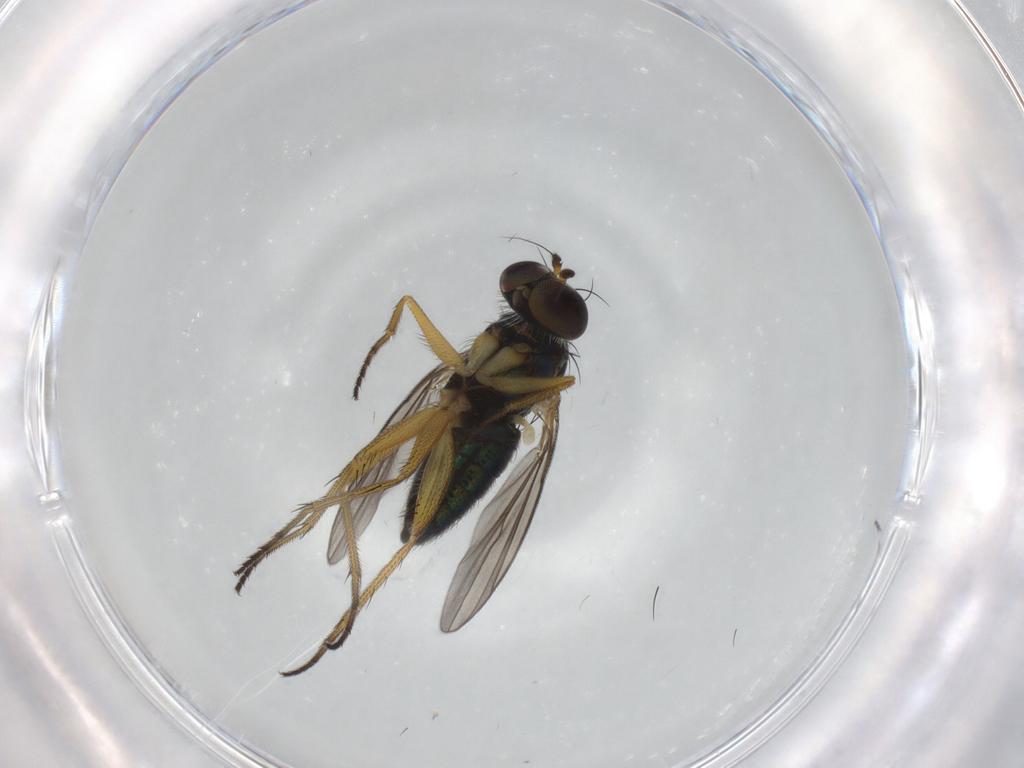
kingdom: Animalia
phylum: Arthropoda
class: Insecta
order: Diptera
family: Dolichopodidae
